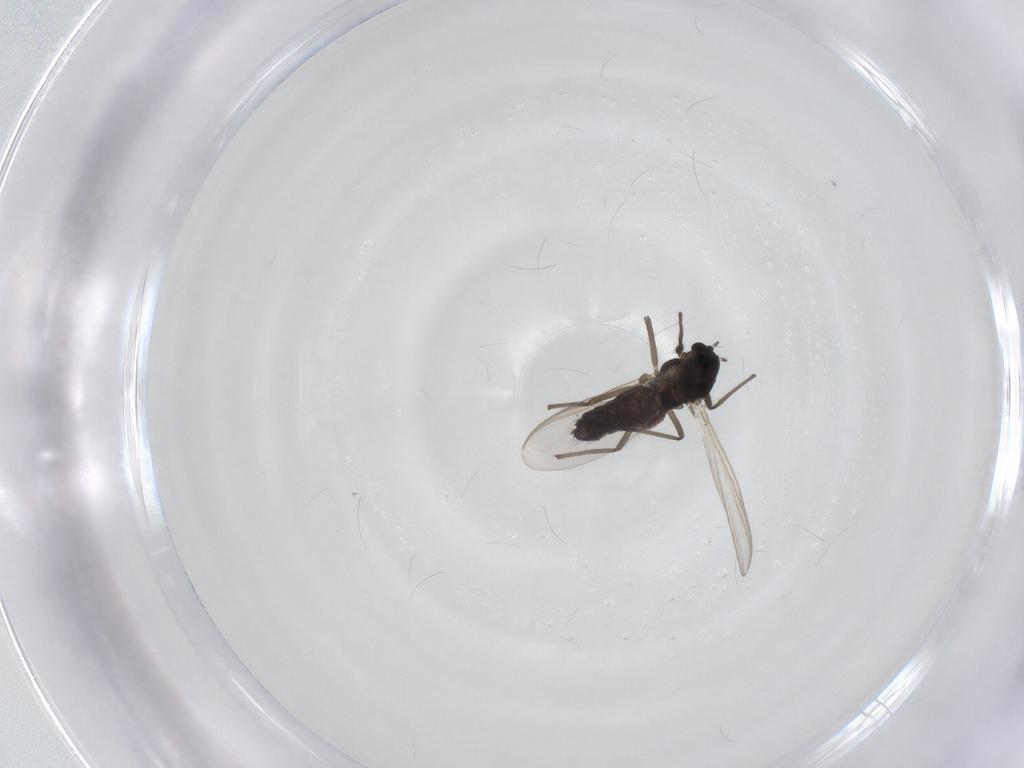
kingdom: Animalia
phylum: Arthropoda
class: Insecta
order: Diptera
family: Chironomidae
